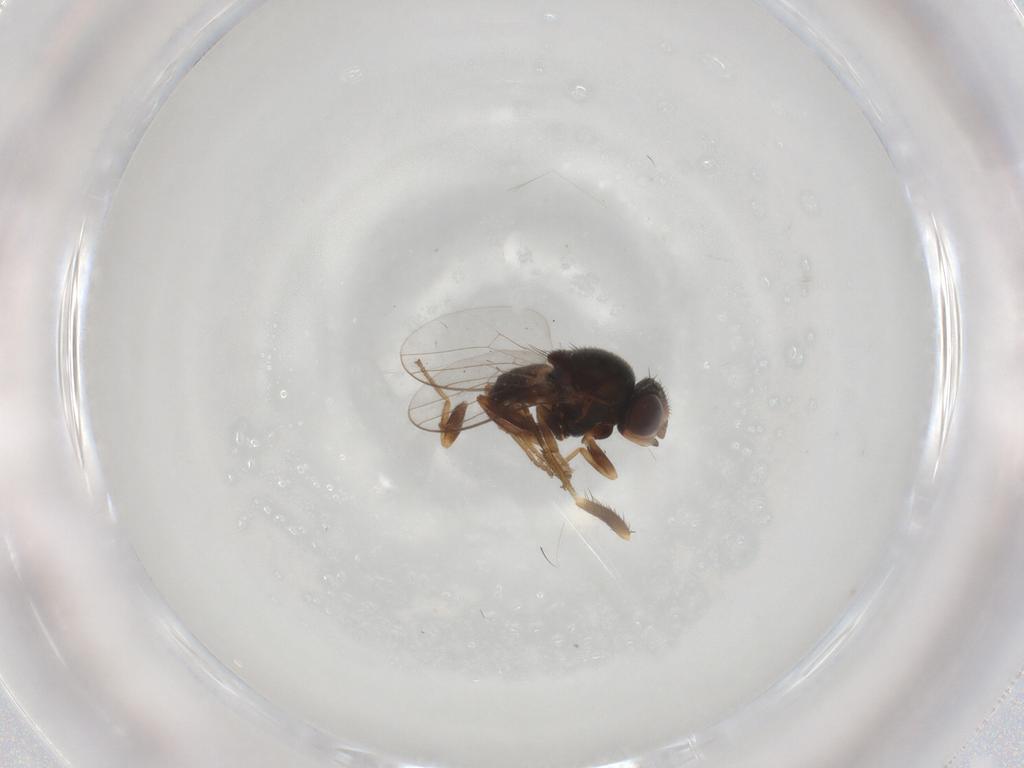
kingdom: Animalia
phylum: Arthropoda
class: Insecta
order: Diptera
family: Chloropidae
